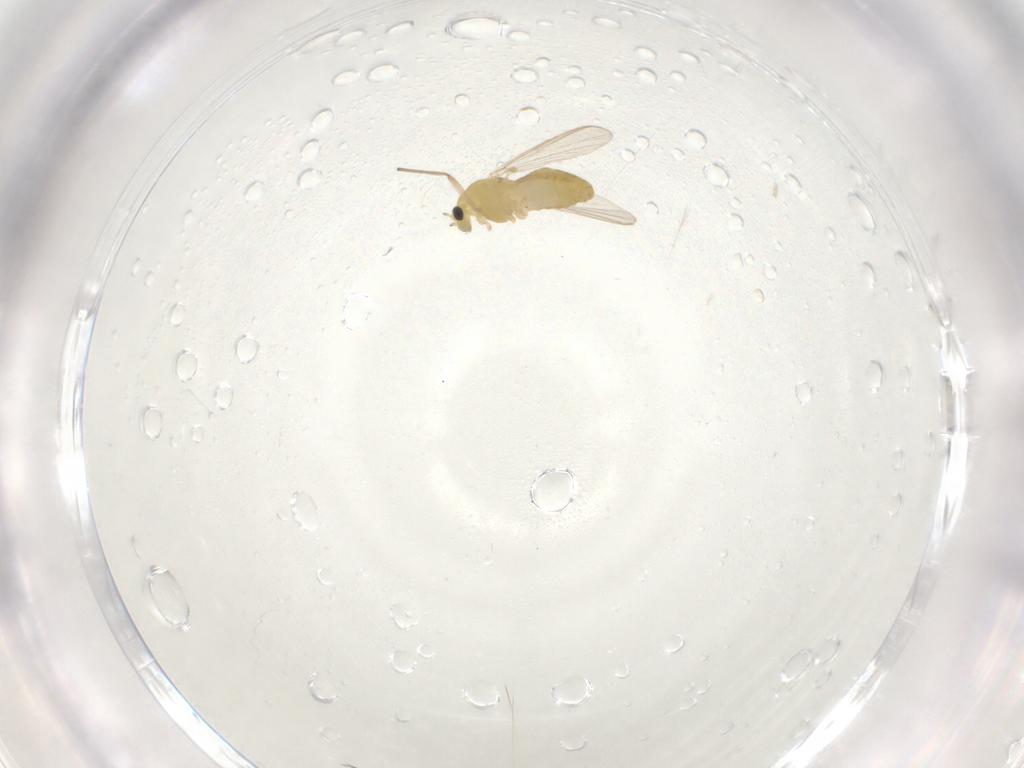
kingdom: Animalia
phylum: Arthropoda
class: Insecta
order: Diptera
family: Chironomidae
